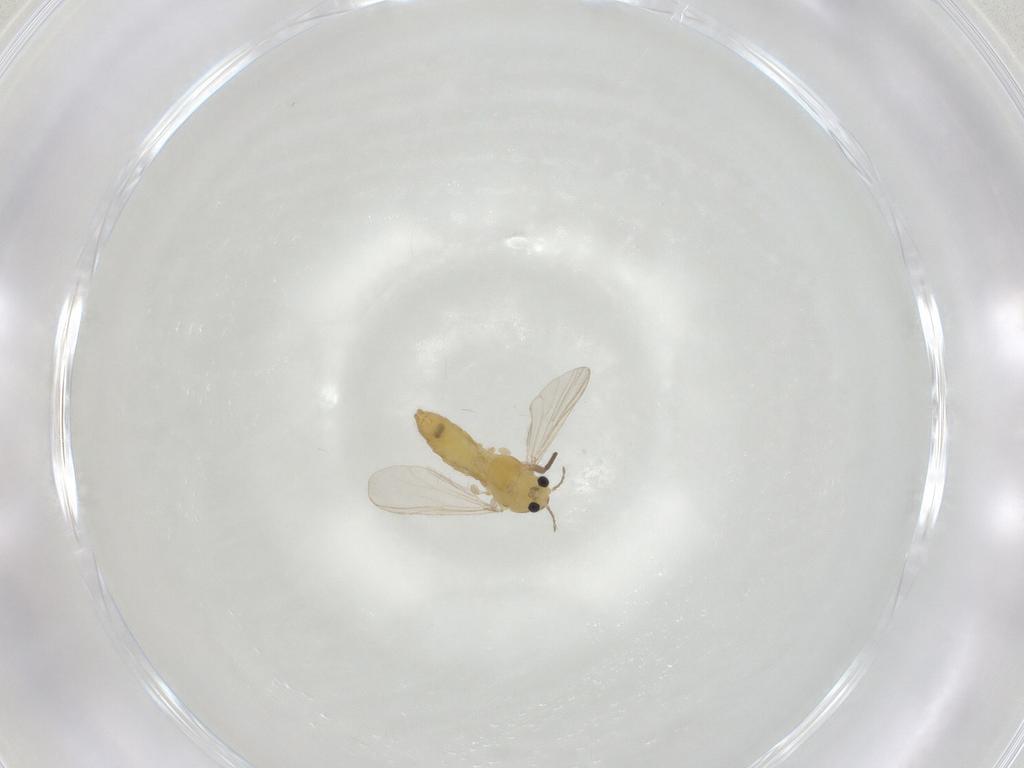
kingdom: Animalia
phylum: Arthropoda
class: Insecta
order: Diptera
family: Chironomidae
